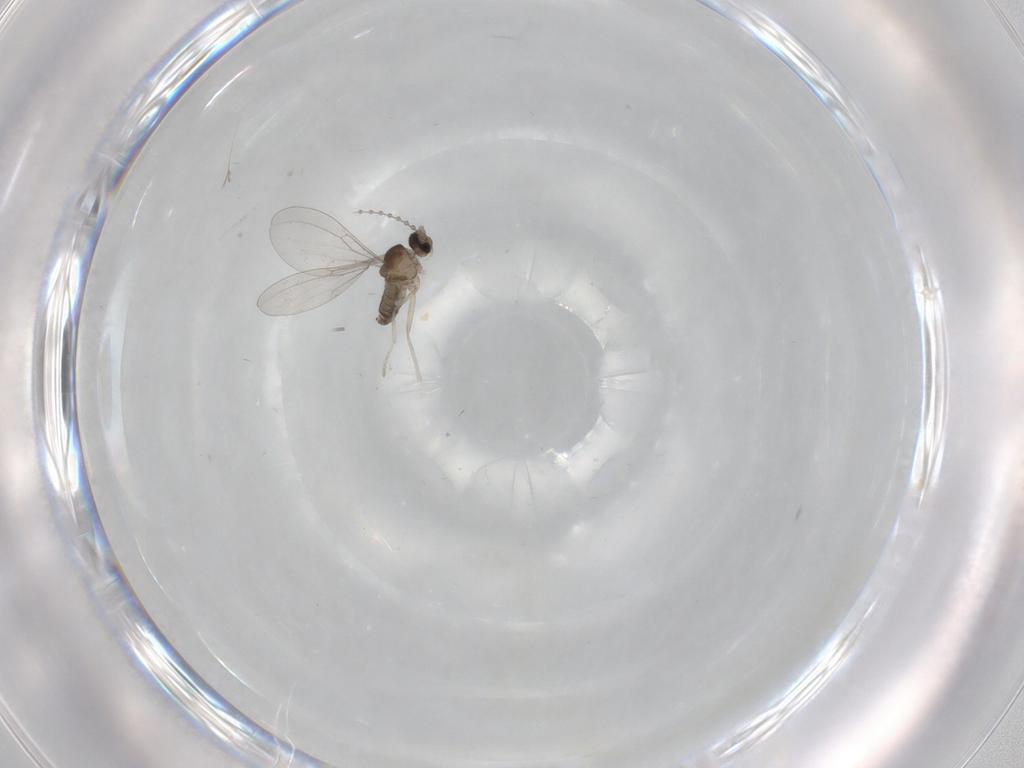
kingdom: Animalia
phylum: Arthropoda
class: Insecta
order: Diptera
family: Cecidomyiidae
